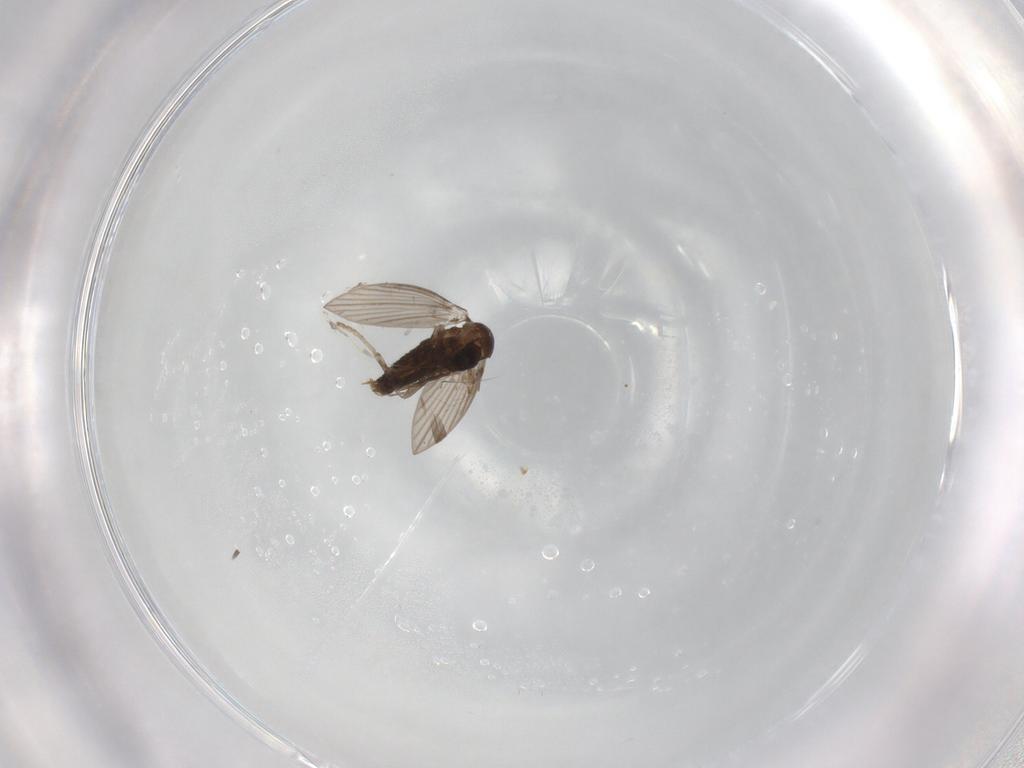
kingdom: Animalia
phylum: Arthropoda
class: Insecta
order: Diptera
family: Psychodidae
